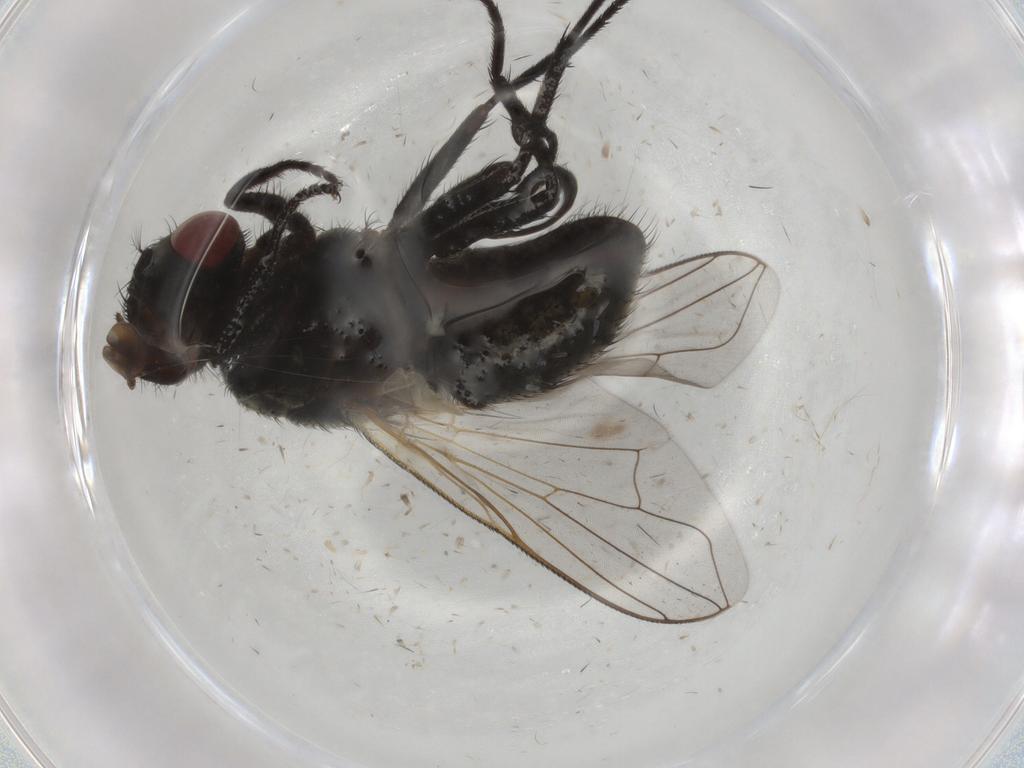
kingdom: Animalia
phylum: Arthropoda
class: Insecta
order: Diptera
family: Muscidae
